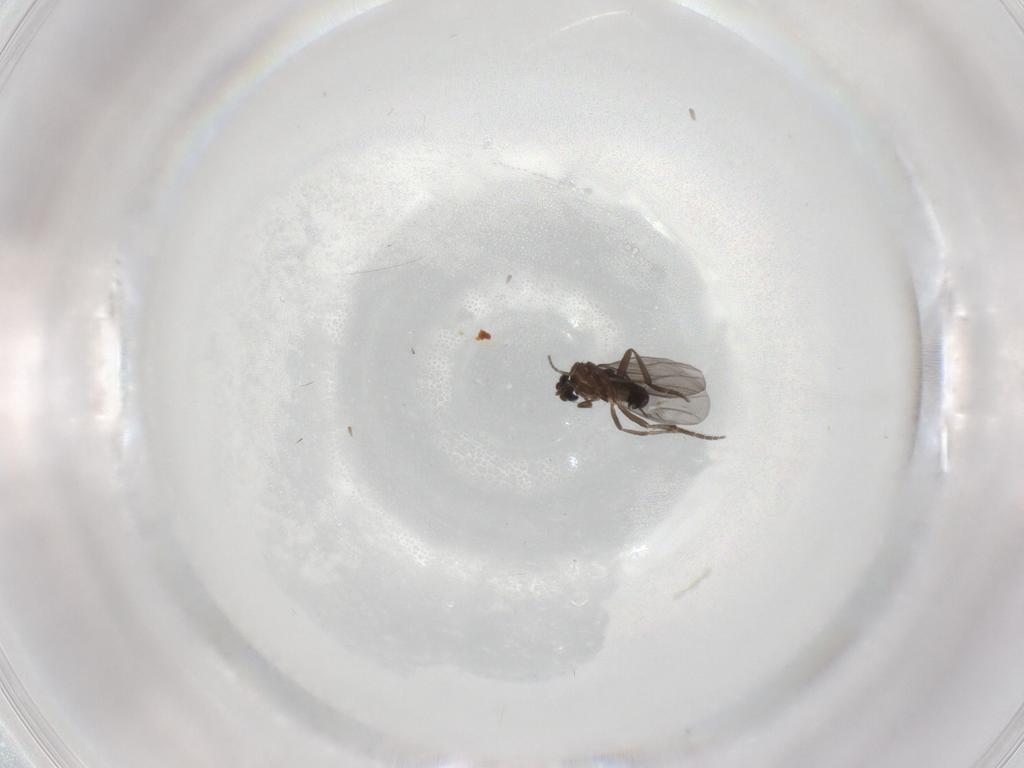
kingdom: Animalia
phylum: Arthropoda
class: Insecta
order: Diptera
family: Cecidomyiidae
